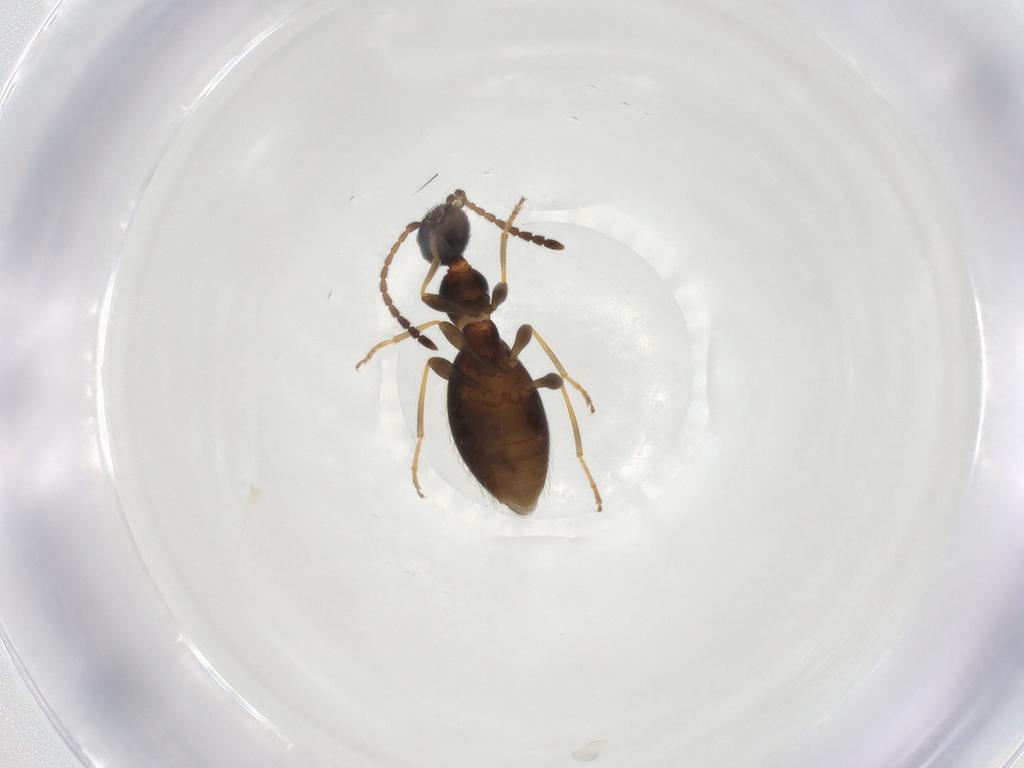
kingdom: Animalia
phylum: Arthropoda
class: Insecta
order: Coleoptera
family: Anthicidae
